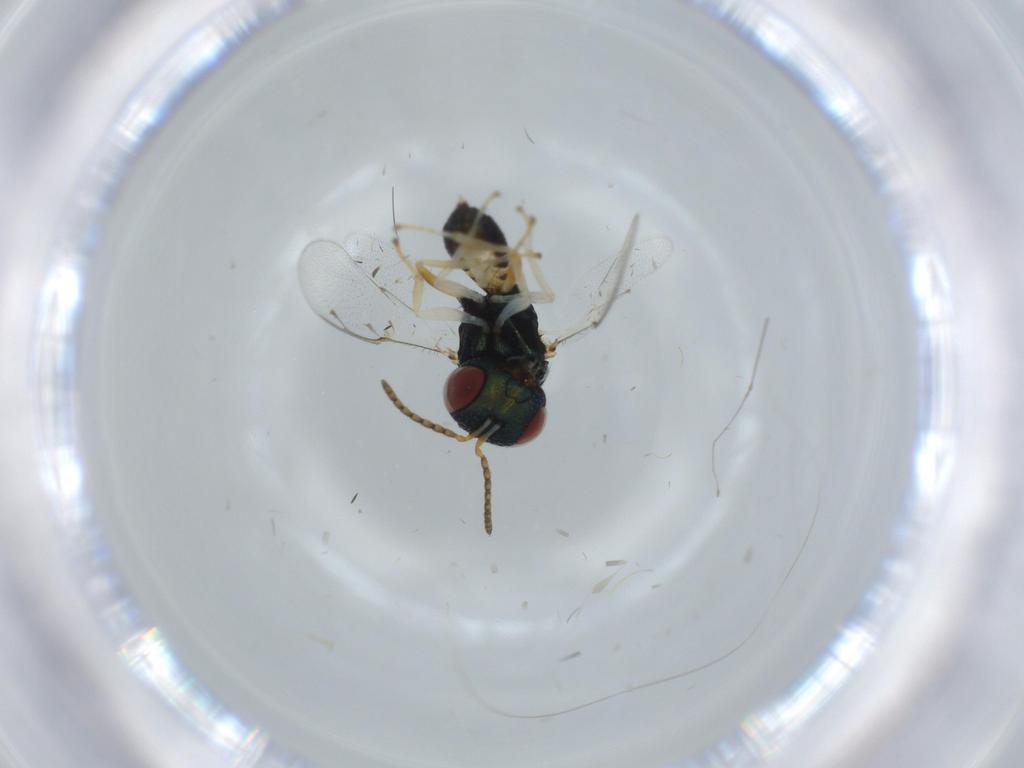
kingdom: Animalia
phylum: Arthropoda
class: Insecta
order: Hymenoptera
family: Pteromalidae
